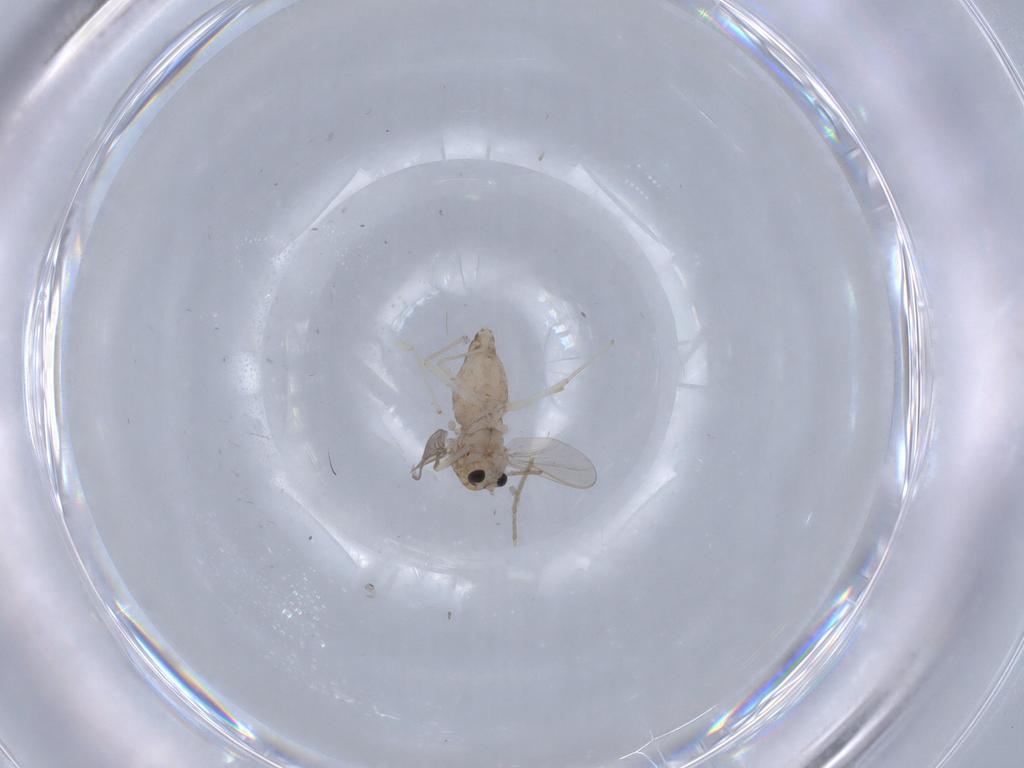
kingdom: Animalia
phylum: Arthropoda
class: Insecta
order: Diptera
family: Chironomidae
